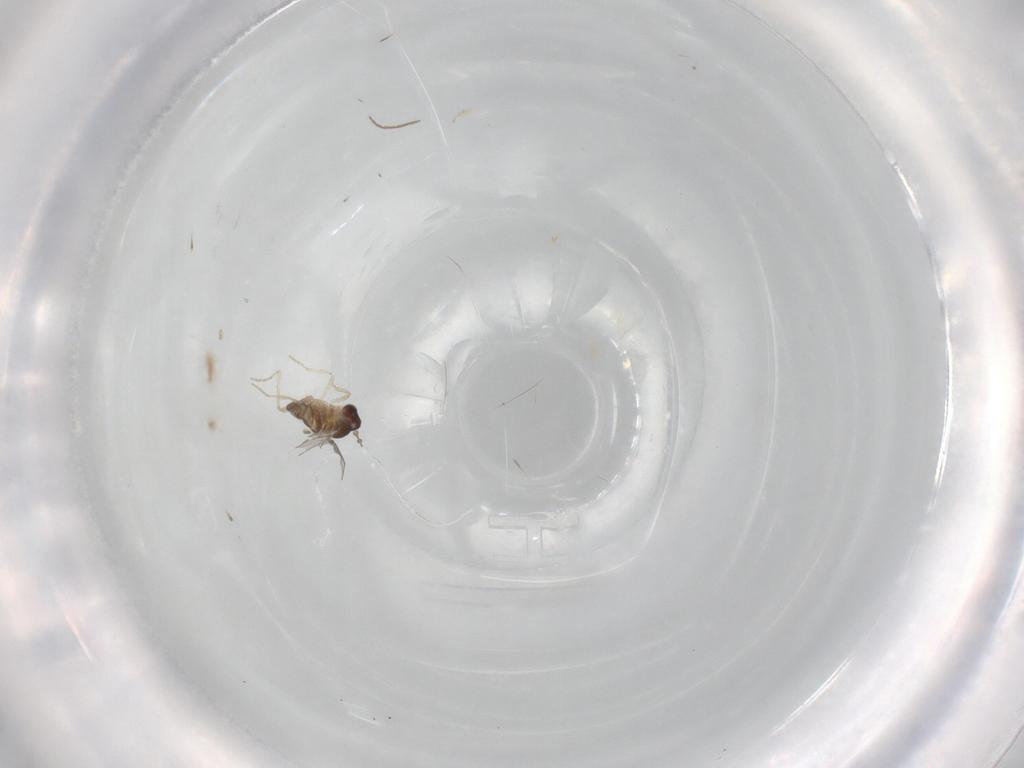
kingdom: Animalia
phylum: Arthropoda
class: Insecta
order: Diptera
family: Cecidomyiidae
